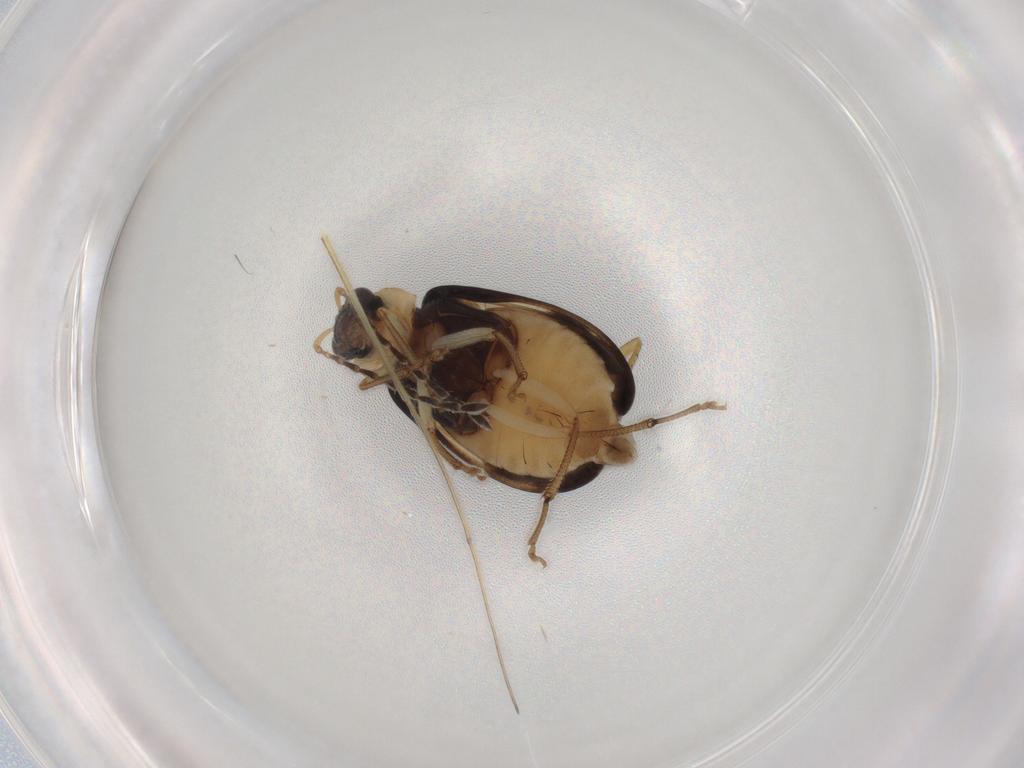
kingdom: Animalia
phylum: Arthropoda
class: Insecta
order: Coleoptera
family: Chrysomelidae
